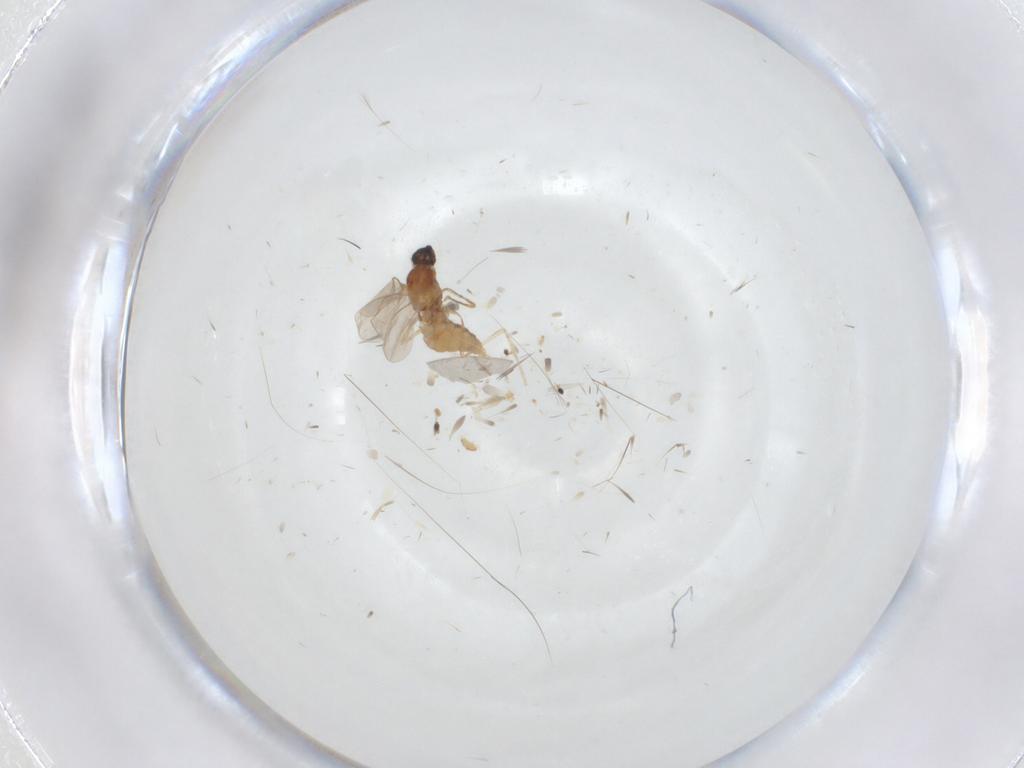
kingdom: Animalia
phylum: Arthropoda
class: Insecta
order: Diptera
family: Cecidomyiidae
